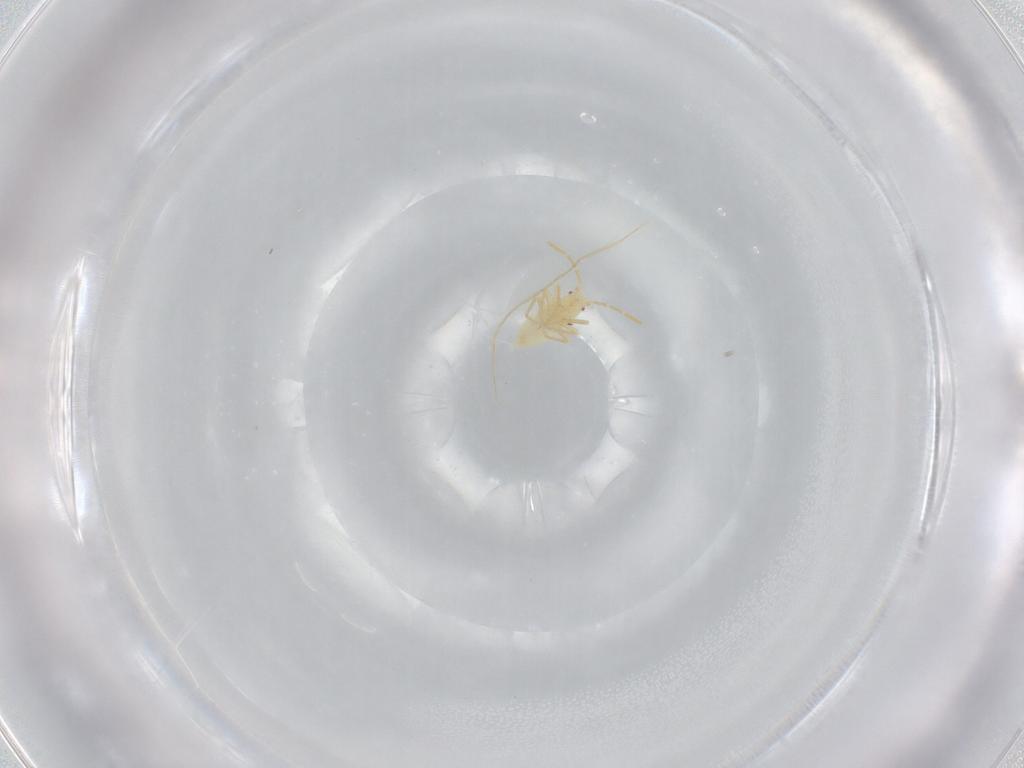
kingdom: Animalia
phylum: Arthropoda
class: Insecta
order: Hemiptera
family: Miridae
